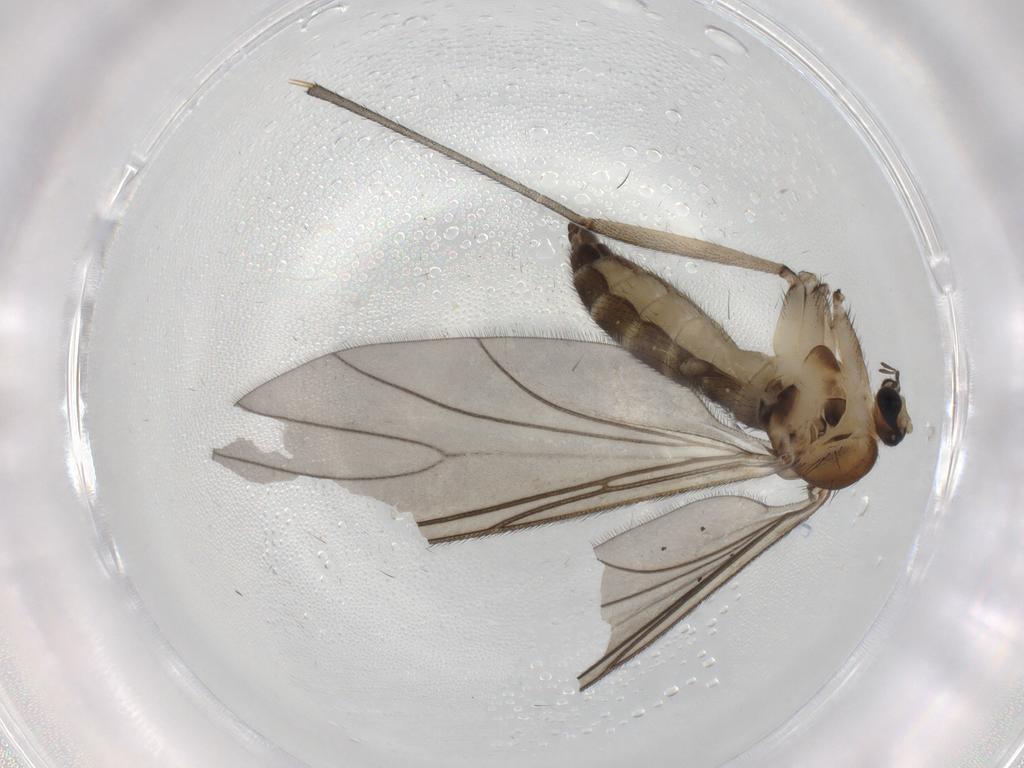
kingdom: Animalia
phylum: Arthropoda
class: Insecta
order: Diptera
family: Sciaridae
